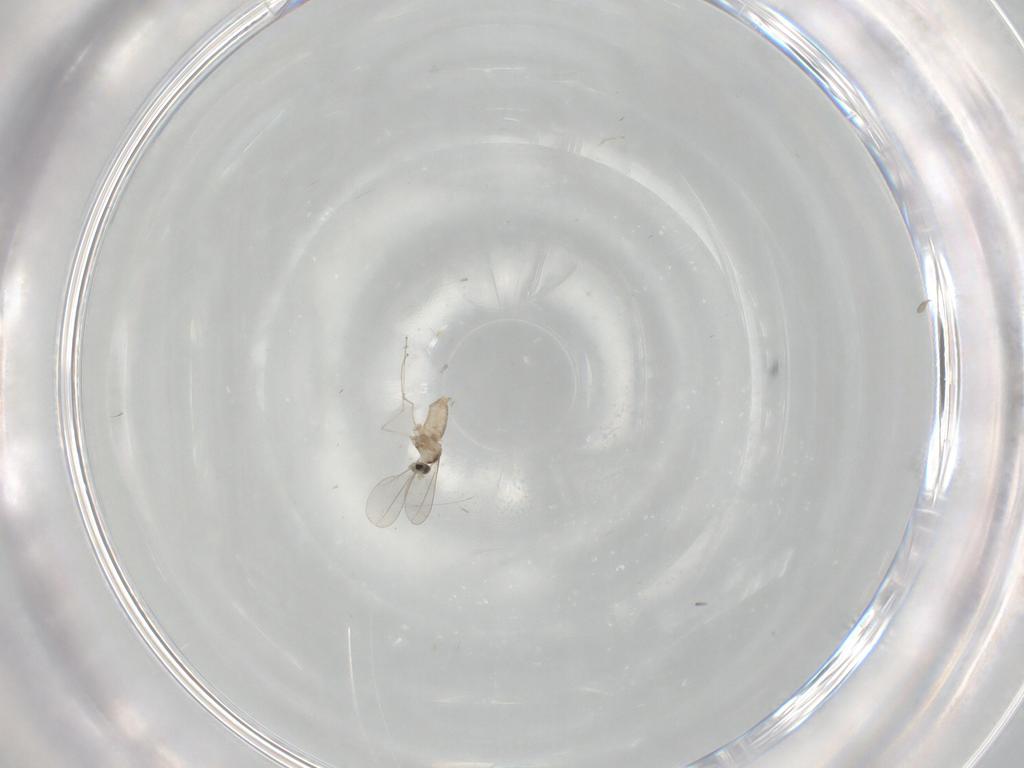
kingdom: Animalia
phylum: Arthropoda
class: Insecta
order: Diptera
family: Cecidomyiidae
